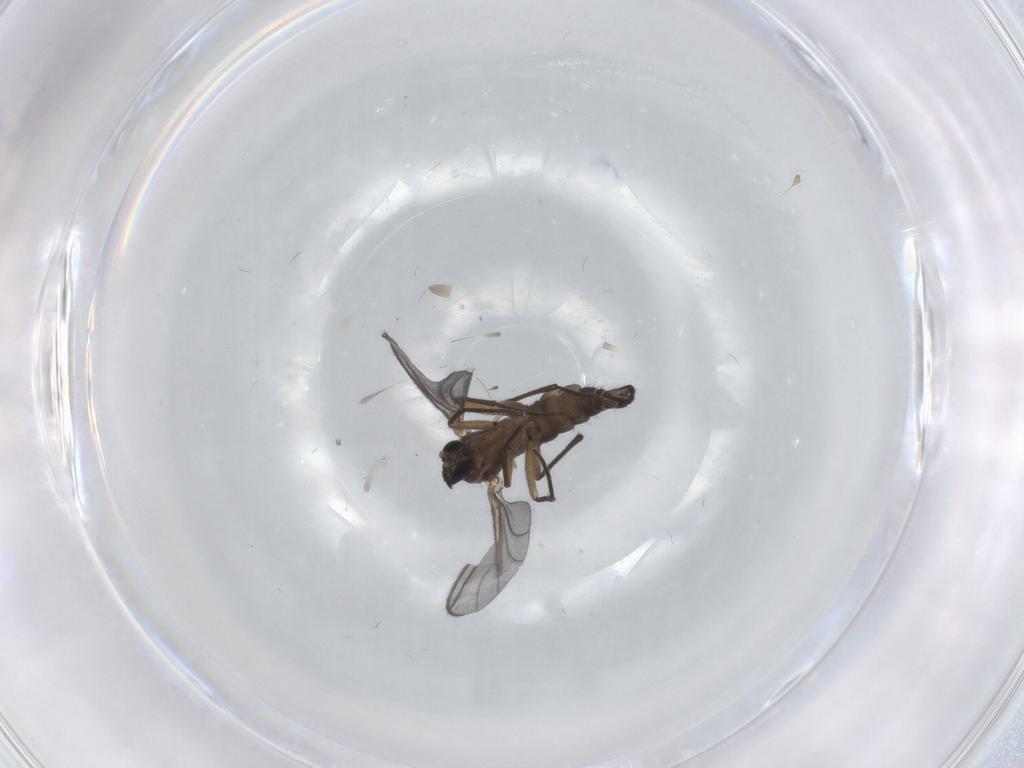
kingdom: Animalia
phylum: Arthropoda
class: Insecta
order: Diptera
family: Sciaridae
